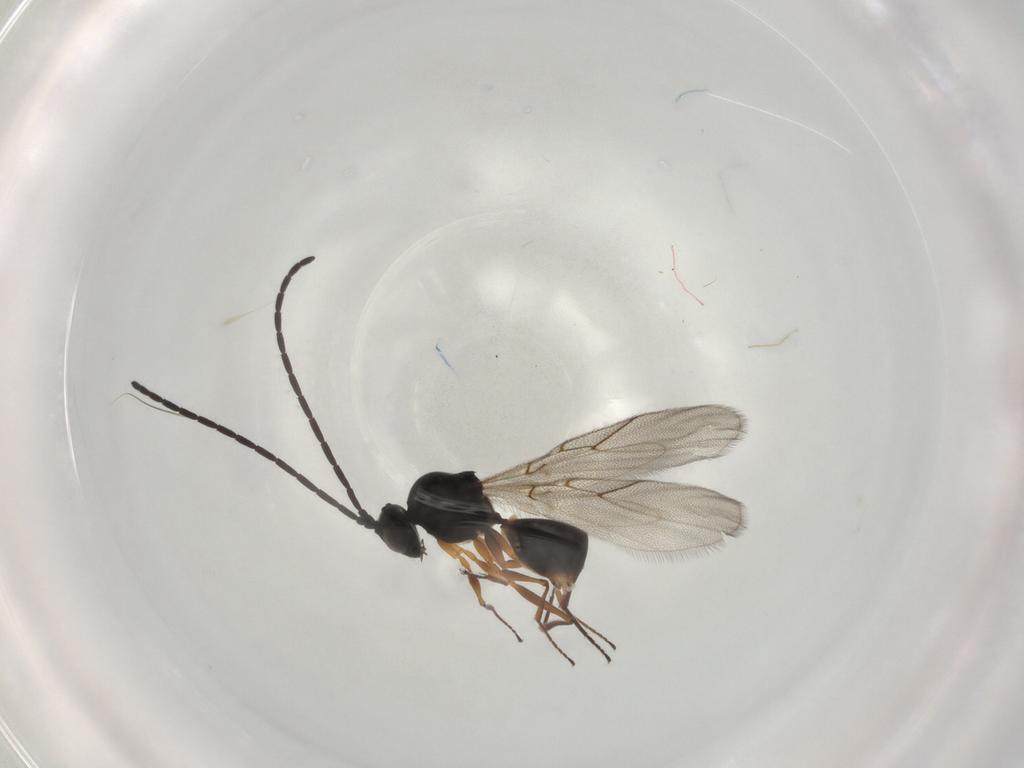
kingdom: Animalia
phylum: Arthropoda
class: Insecta
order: Hymenoptera
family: Figitidae
